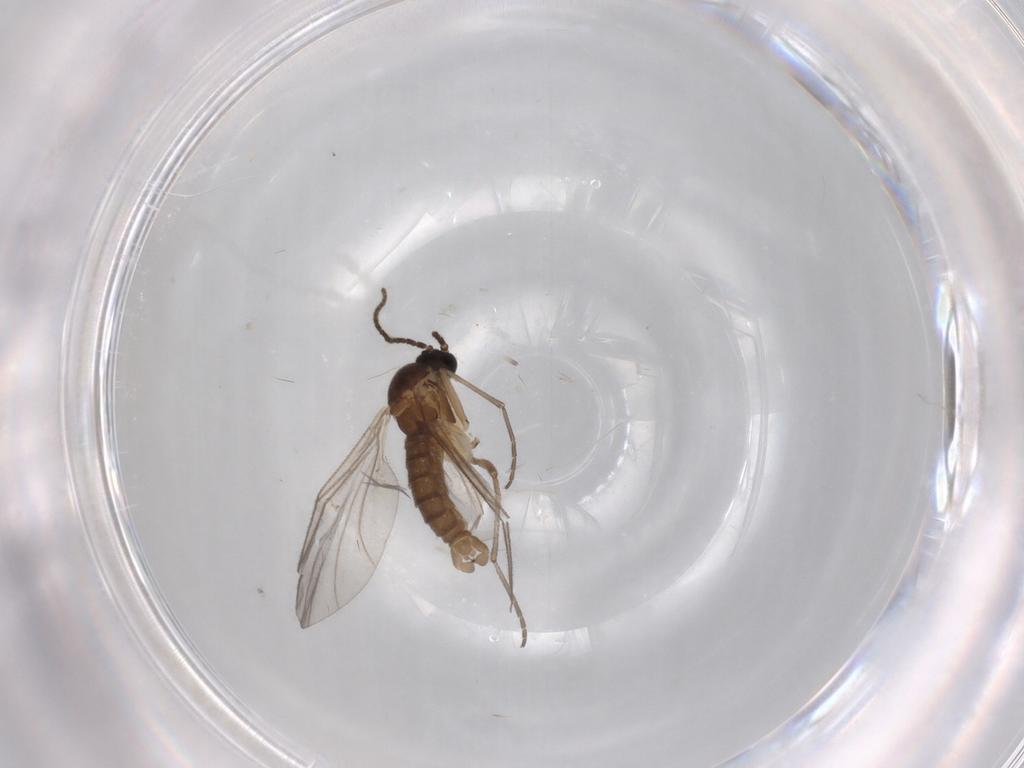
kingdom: Animalia
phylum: Arthropoda
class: Insecta
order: Diptera
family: Sciaridae
